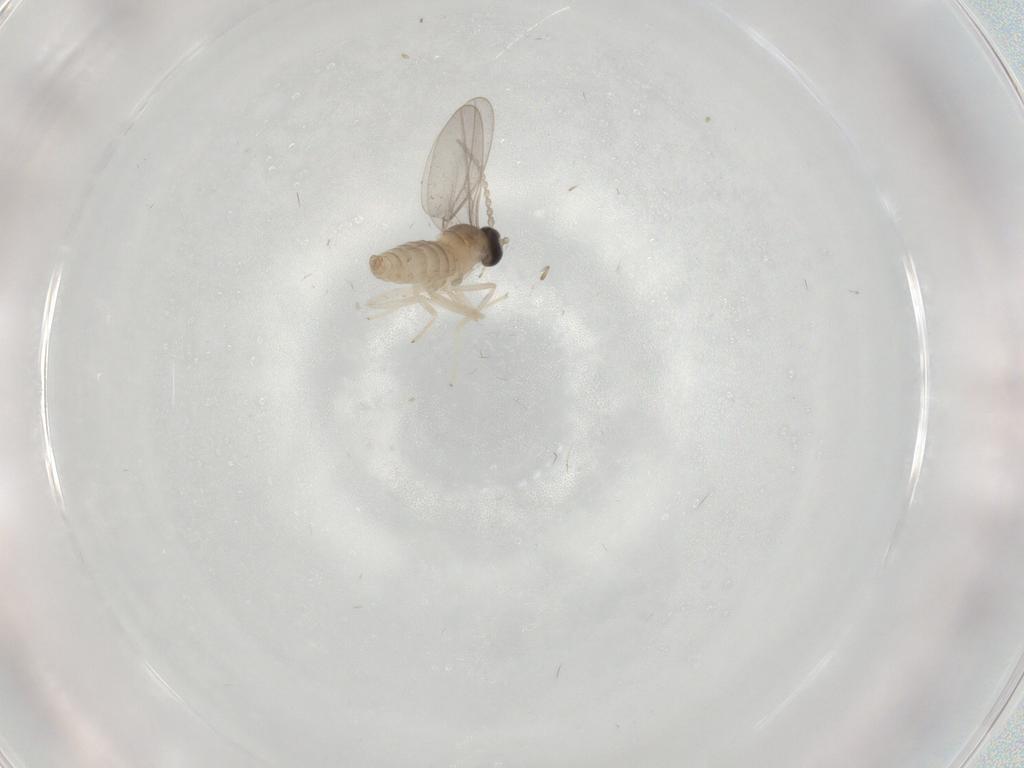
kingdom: Animalia
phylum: Arthropoda
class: Insecta
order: Diptera
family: Cecidomyiidae
